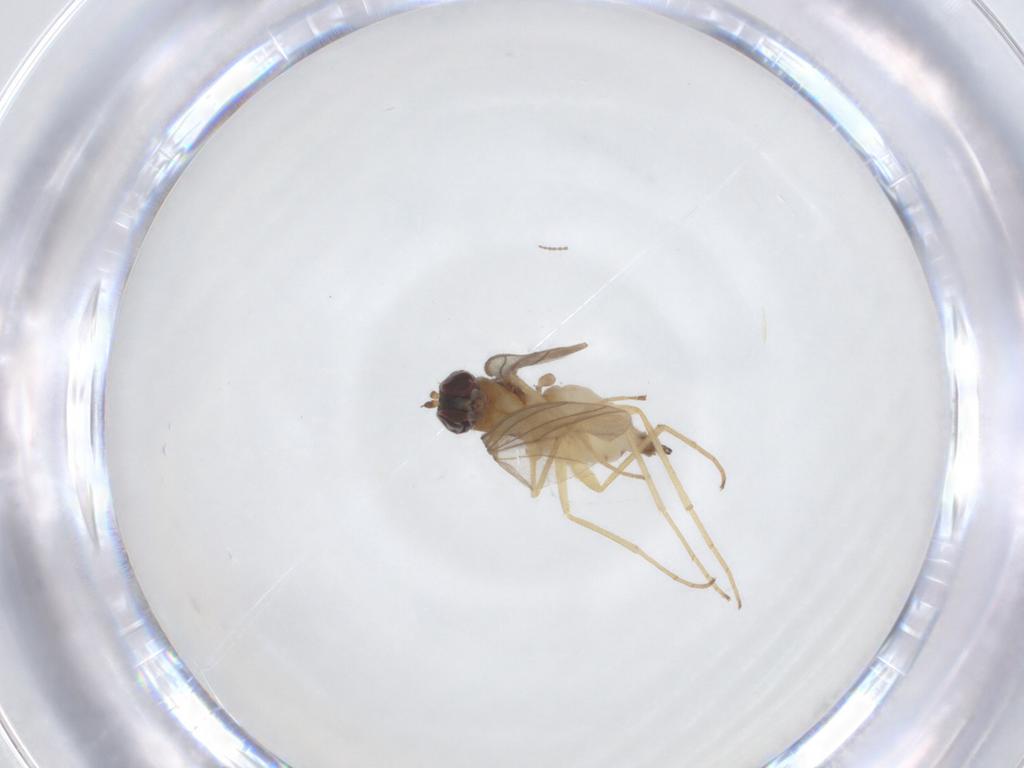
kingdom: Animalia
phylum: Arthropoda
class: Insecta
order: Diptera
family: Dolichopodidae
